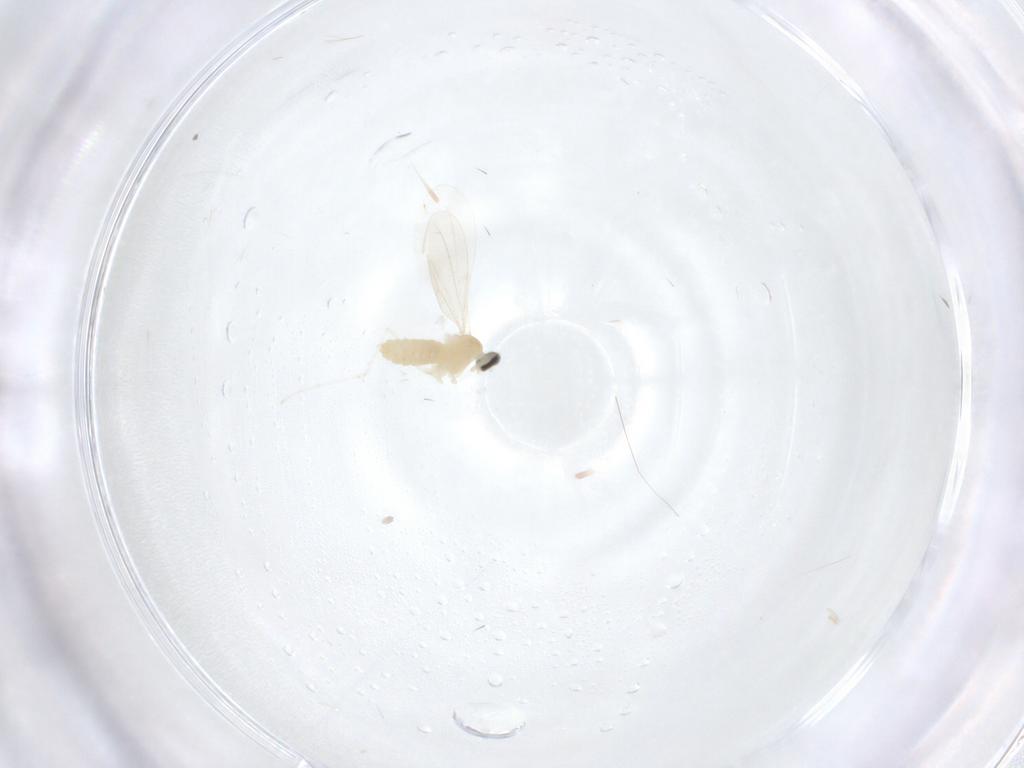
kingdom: Animalia
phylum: Arthropoda
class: Insecta
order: Diptera
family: Cecidomyiidae
